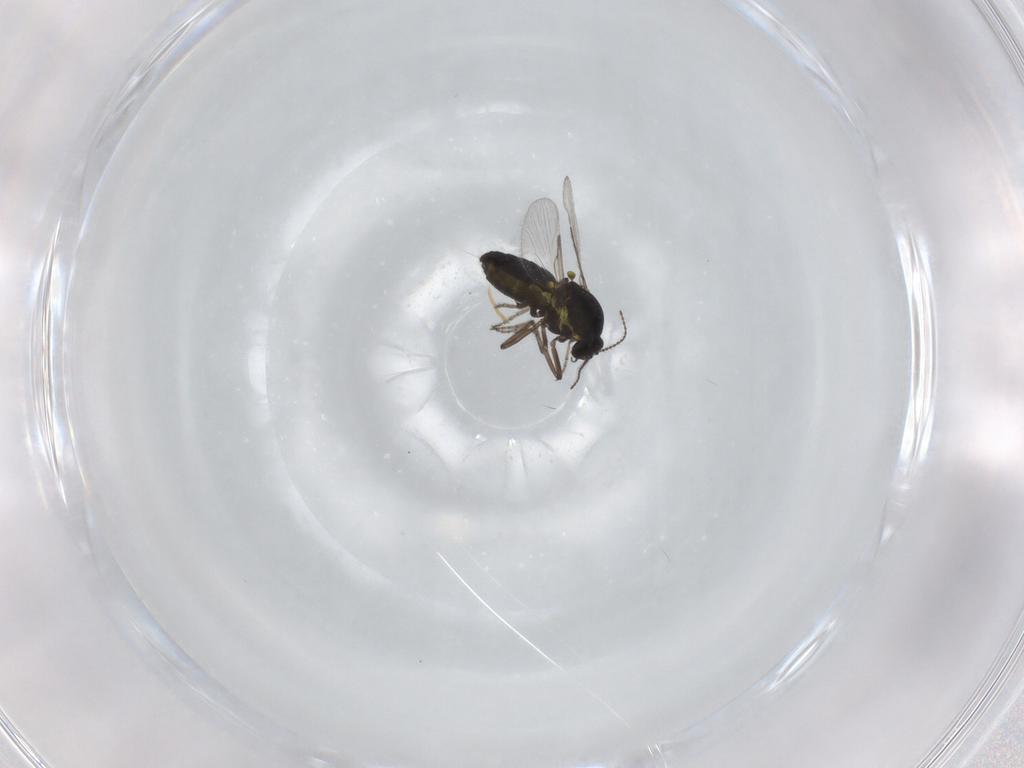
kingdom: Animalia
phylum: Arthropoda
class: Insecta
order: Diptera
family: Ceratopogonidae
